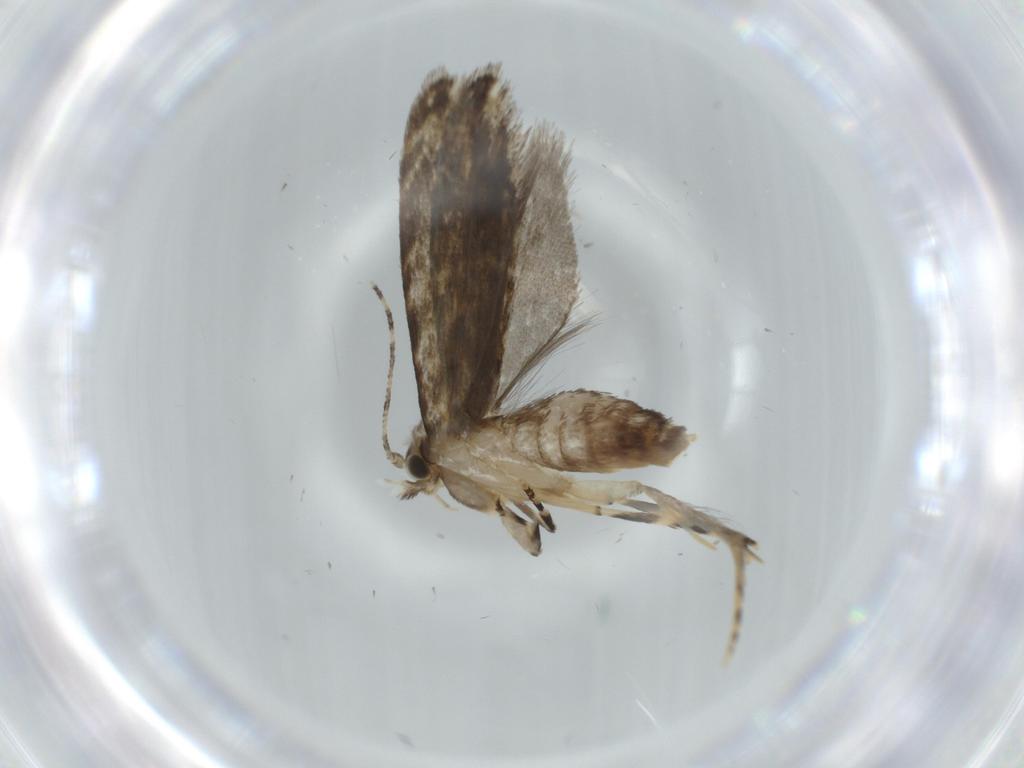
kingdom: Animalia
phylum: Arthropoda
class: Insecta
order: Lepidoptera
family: Tineidae
